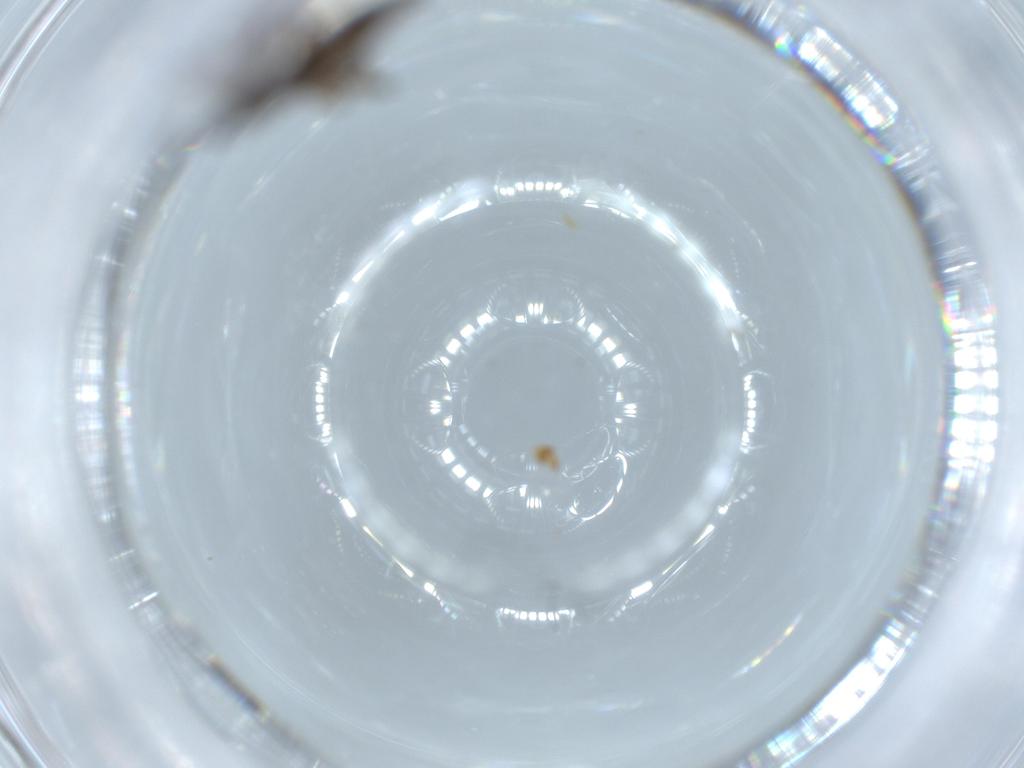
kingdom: Animalia
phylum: Arthropoda
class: Insecta
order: Diptera
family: Sciaridae
